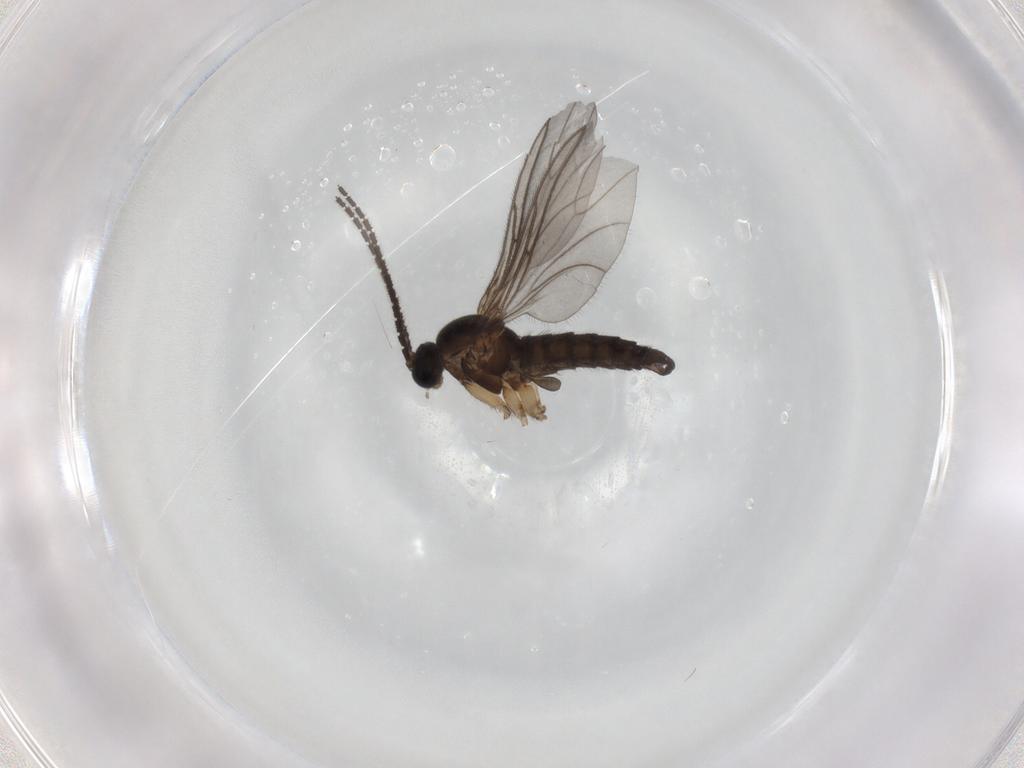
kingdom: Animalia
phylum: Arthropoda
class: Insecta
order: Diptera
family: Sciaridae
